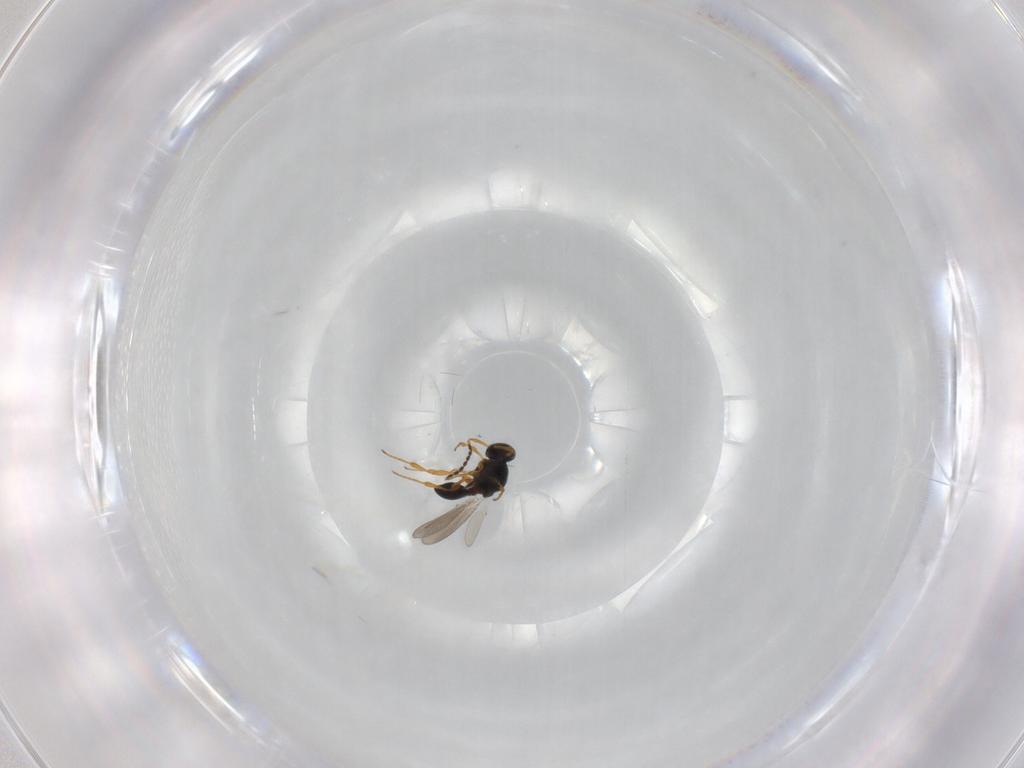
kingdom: Animalia
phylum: Arthropoda
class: Insecta
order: Hymenoptera
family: Platygastridae
